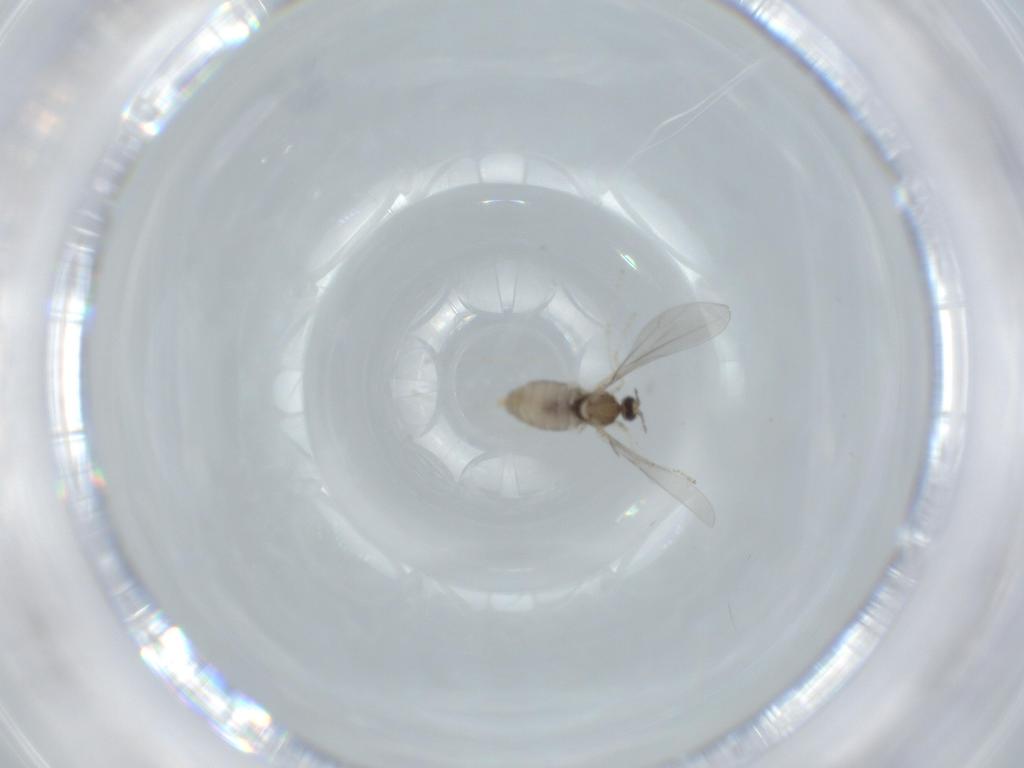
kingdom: Animalia
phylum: Arthropoda
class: Insecta
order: Diptera
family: Cecidomyiidae
